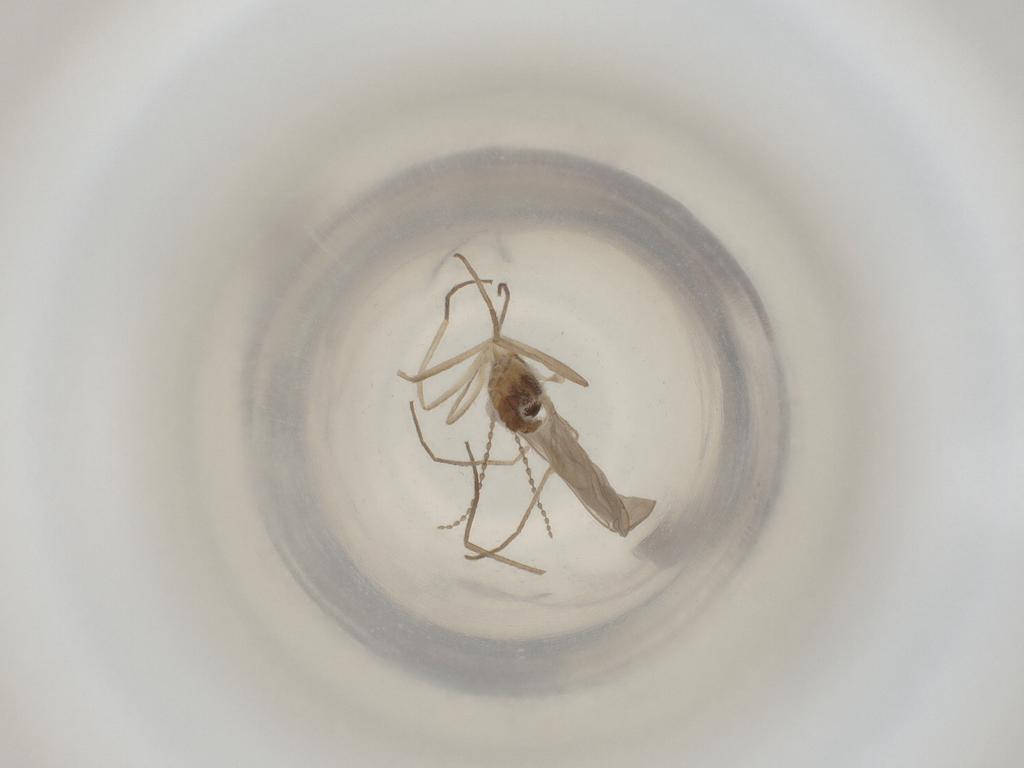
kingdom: Animalia
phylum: Arthropoda
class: Insecta
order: Diptera
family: Cecidomyiidae
